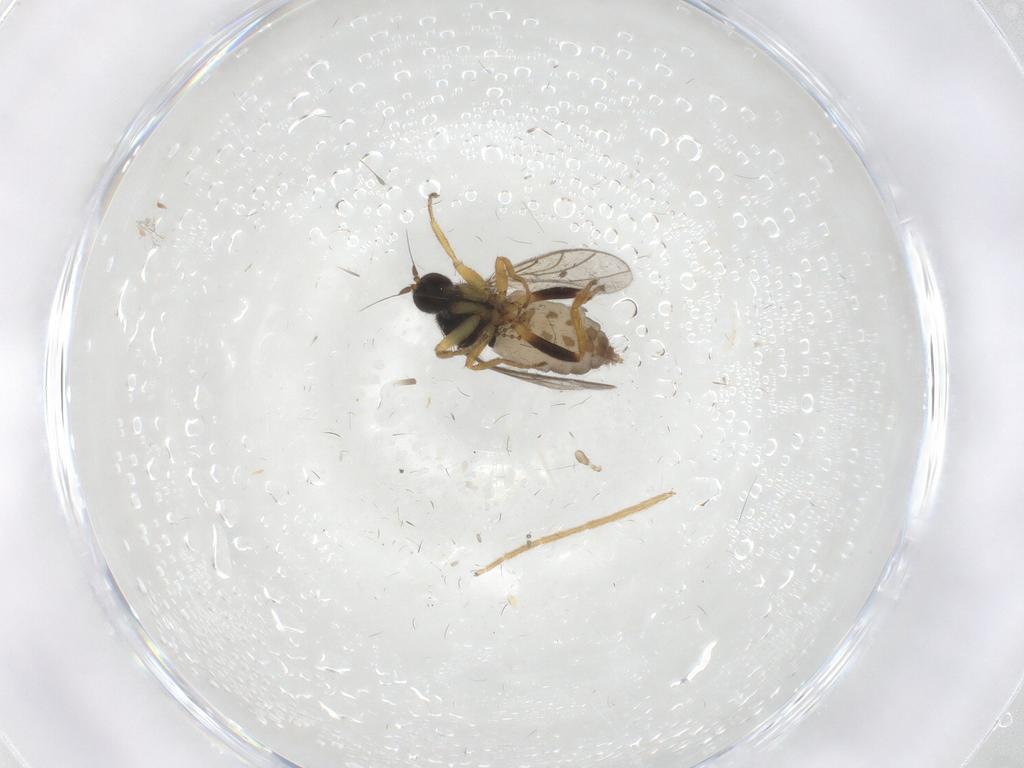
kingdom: Animalia
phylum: Arthropoda
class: Insecta
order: Diptera
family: Hybotidae
